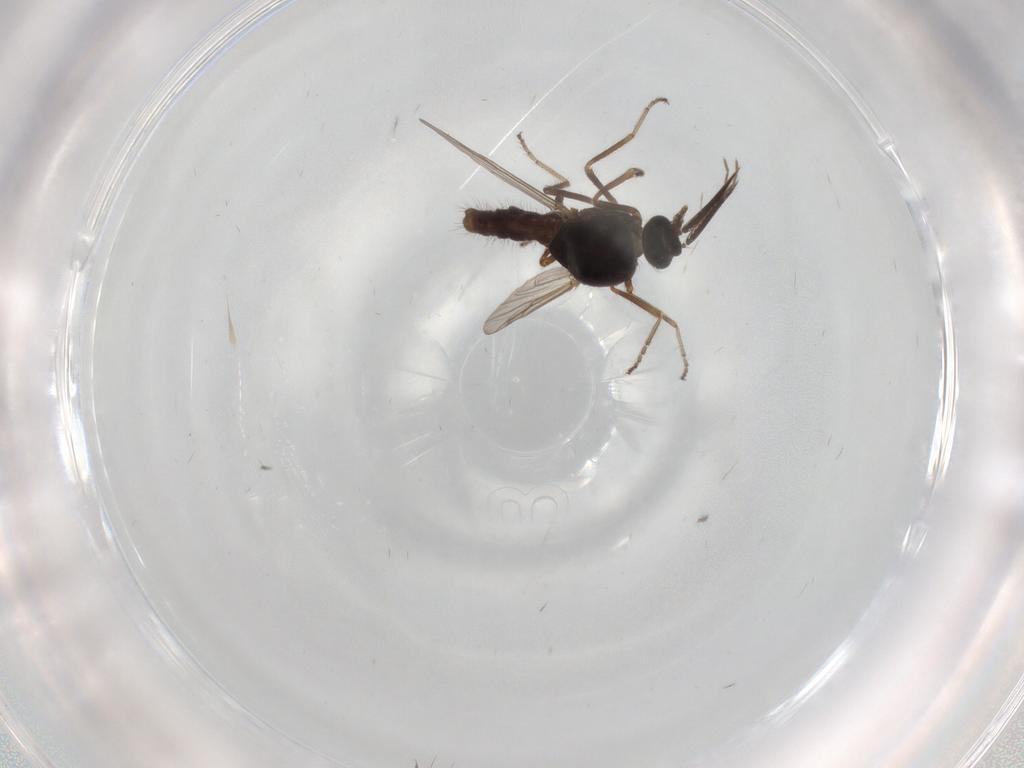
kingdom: Animalia
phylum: Arthropoda
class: Insecta
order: Diptera
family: Ceratopogonidae
